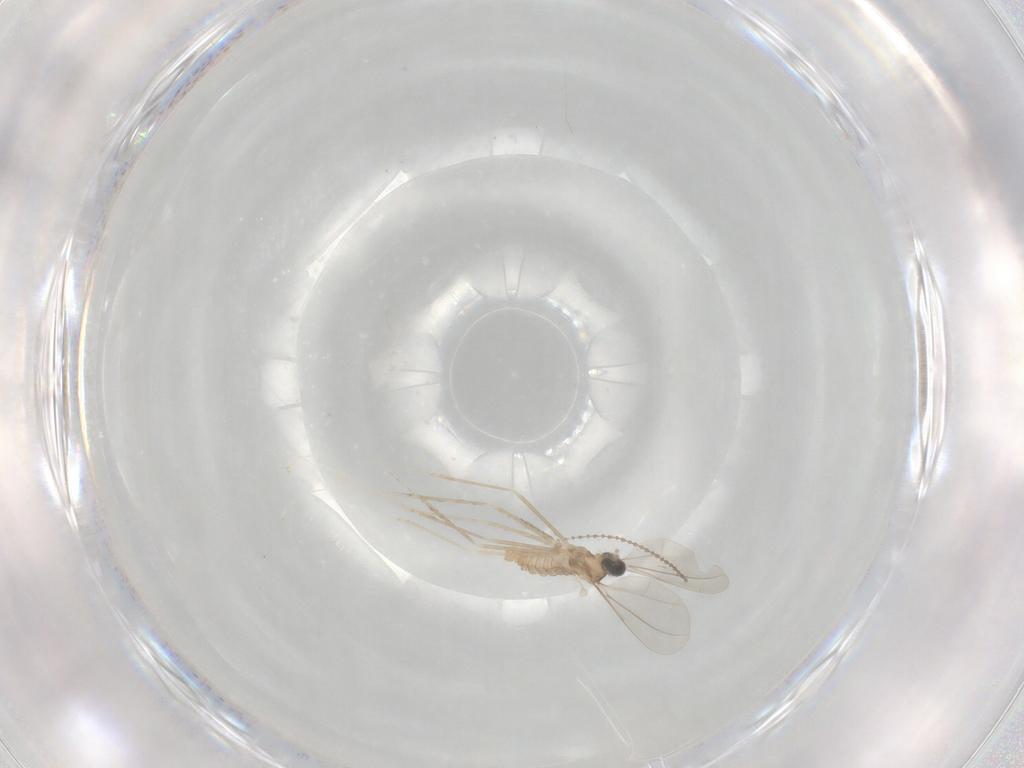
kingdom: Animalia
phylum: Arthropoda
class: Insecta
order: Diptera
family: Cecidomyiidae
